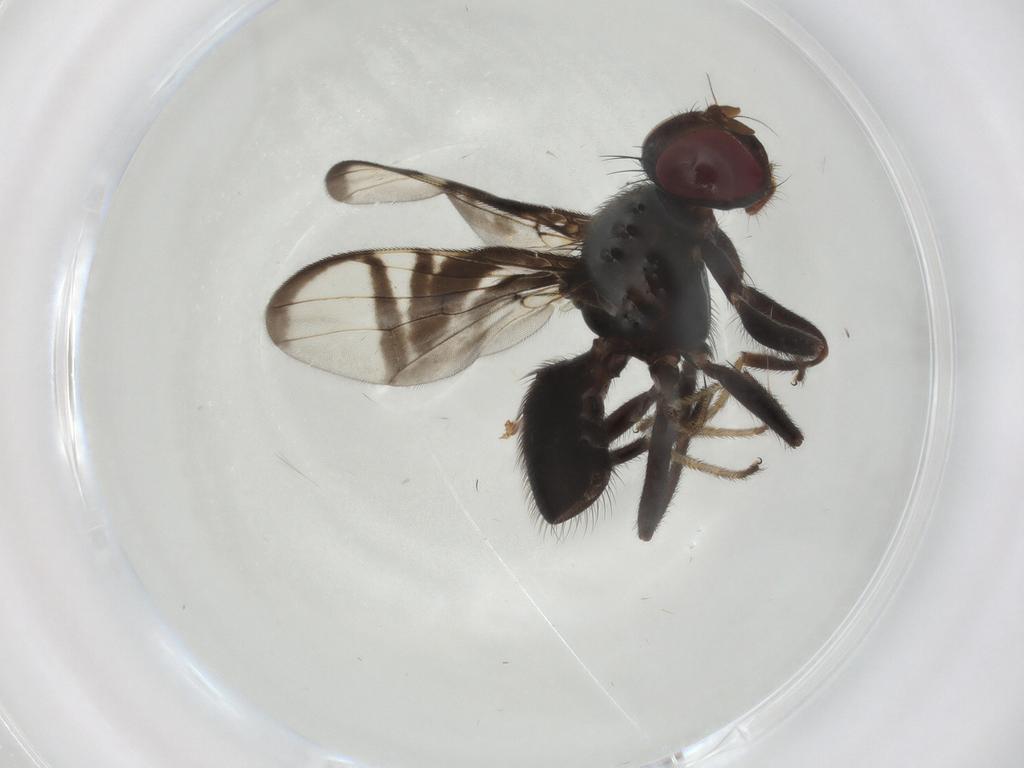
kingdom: Animalia
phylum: Arthropoda
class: Insecta
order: Diptera
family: Cecidomyiidae
